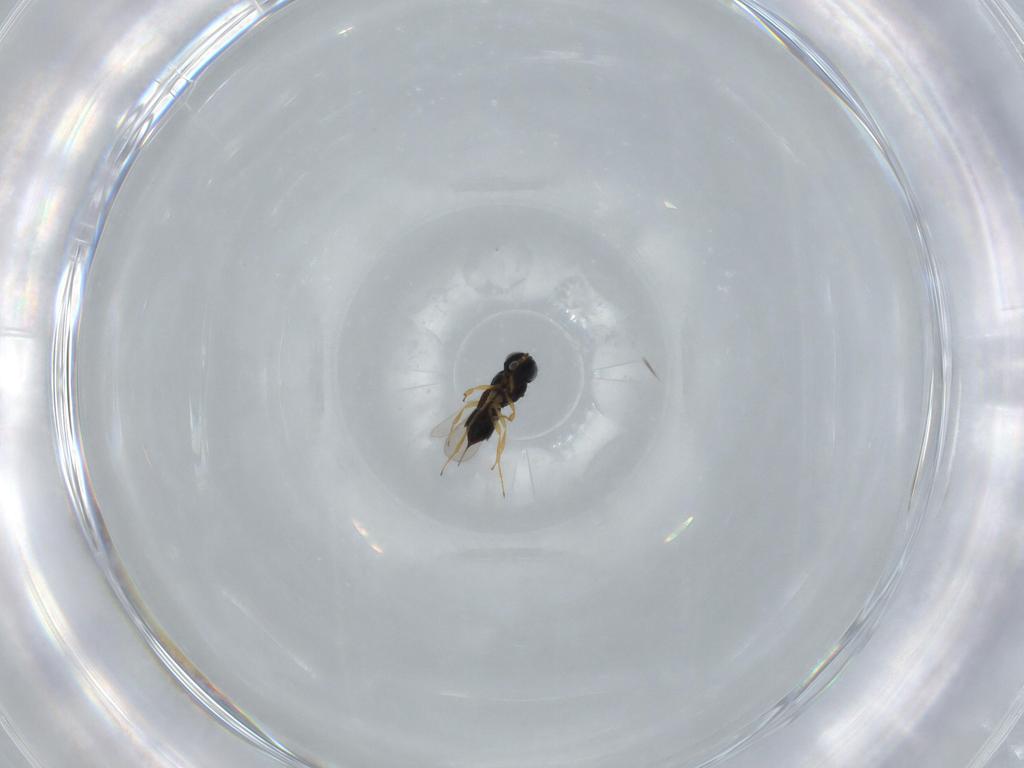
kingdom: Animalia
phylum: Arthropoda
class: Insecta
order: Hymenoptera
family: Scelionidae
